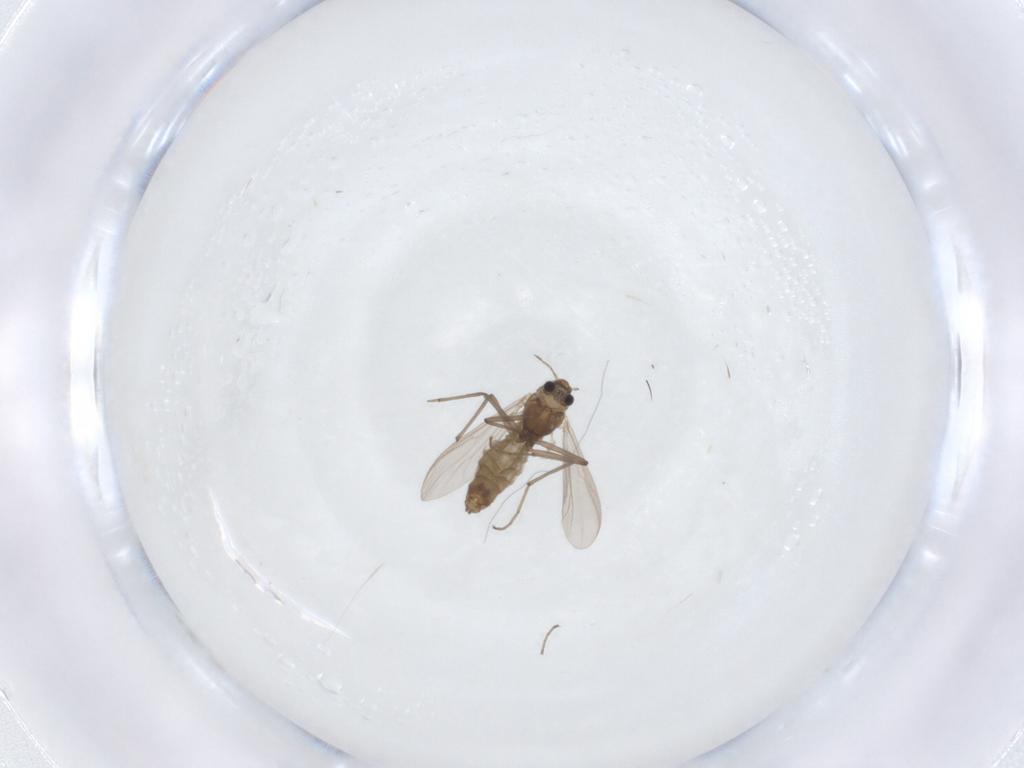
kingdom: Animalia
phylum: Arthropoda
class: Insecta
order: Diptera
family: Chironomidae
